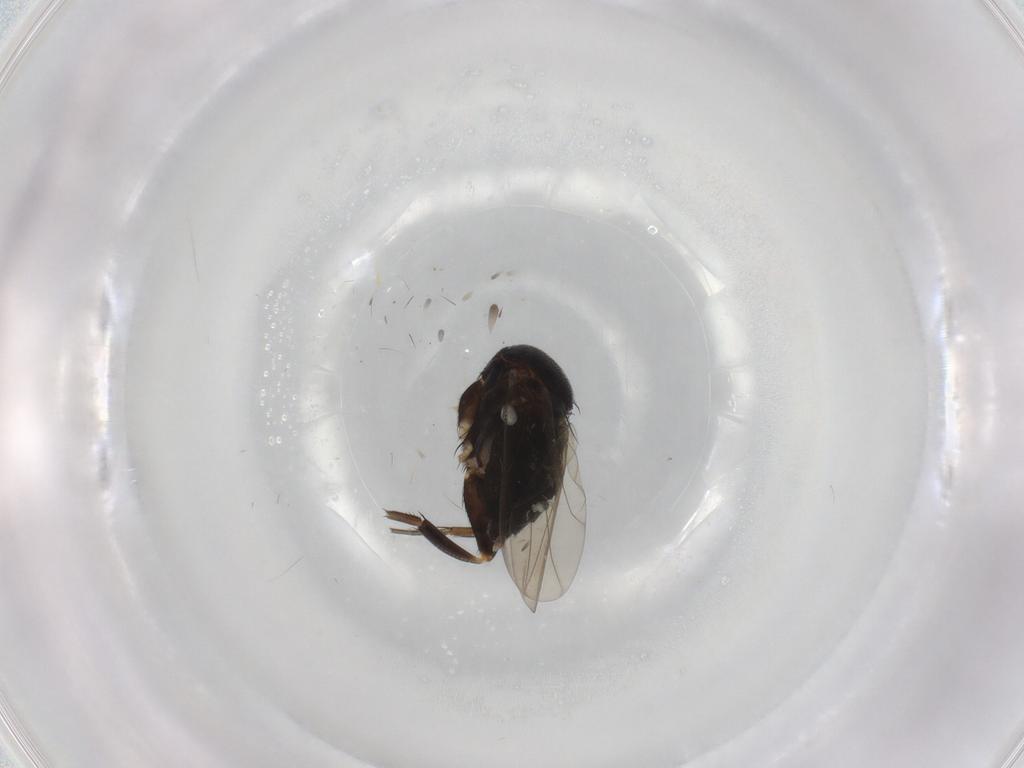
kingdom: Animalia
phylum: Arthropoda
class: Insecta
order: Diptera
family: Phoridae
